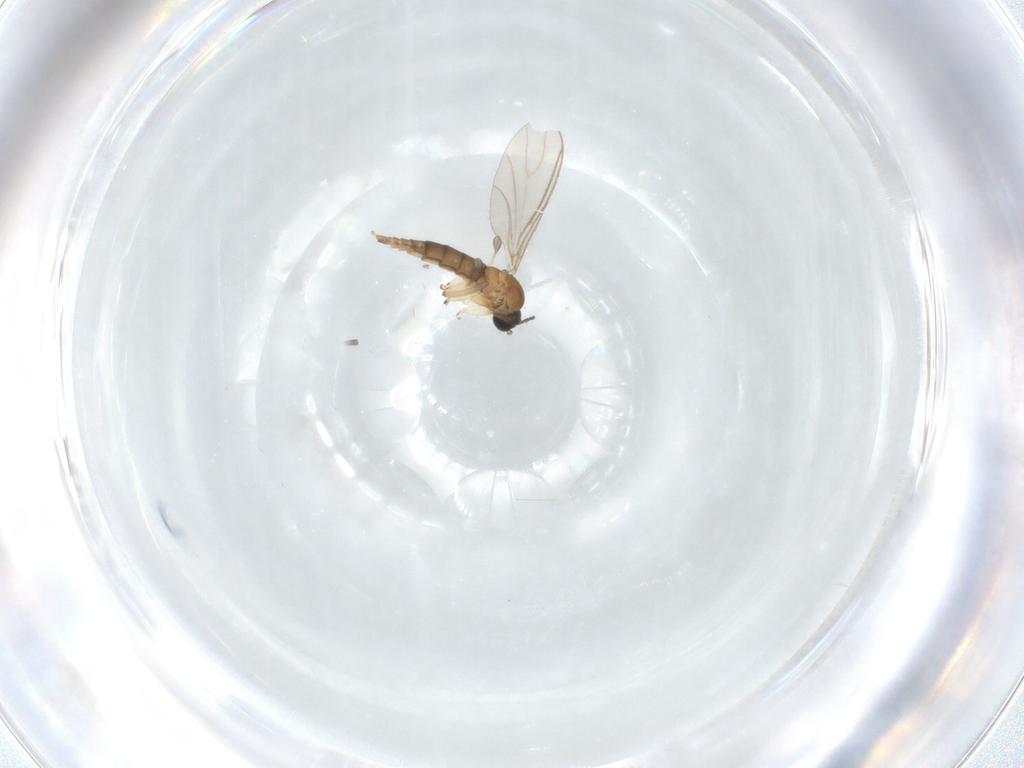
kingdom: Animalia
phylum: Arthropoda
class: Insecta
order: Diptera
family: Sciaridae
